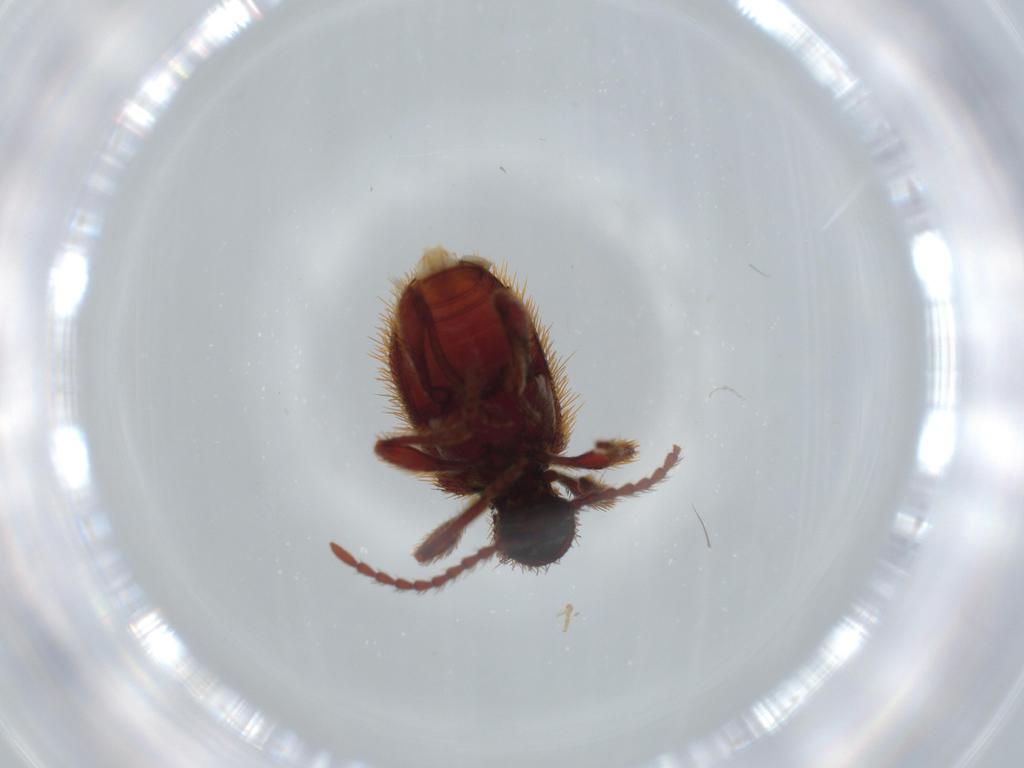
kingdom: Animalia
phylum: Arthropoda
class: Insecta
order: Coleoptera
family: Ptinidae
